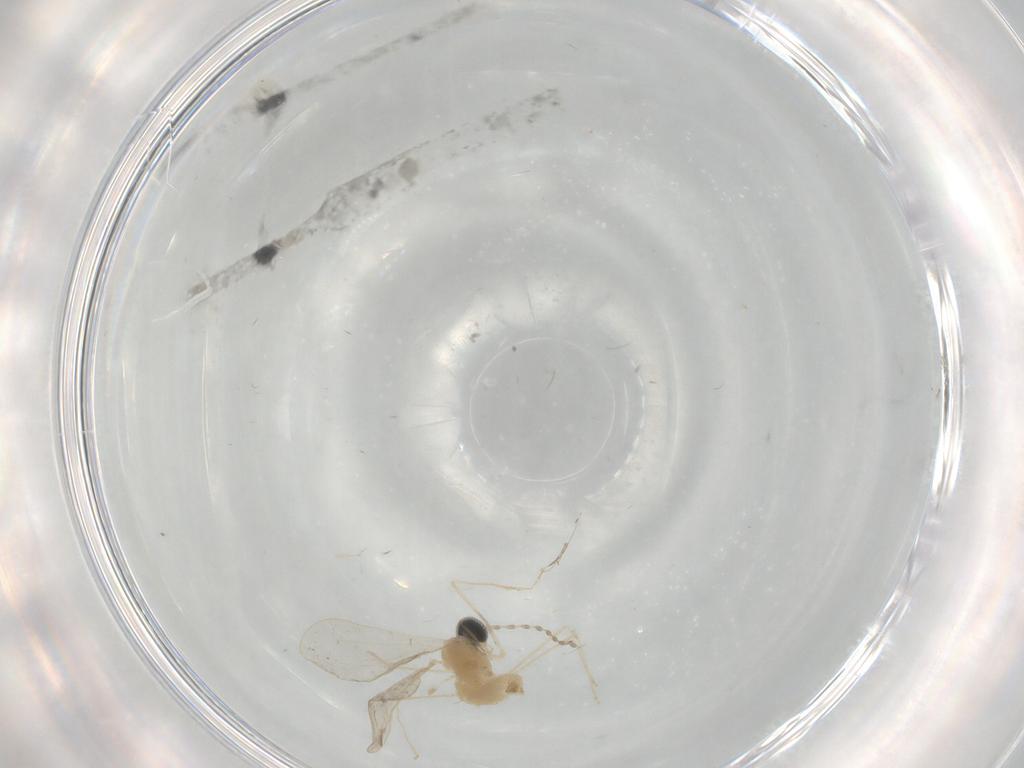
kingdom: Animalia
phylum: Arthropoda
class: Insecta
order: Diptera
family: Cecidomyiidae
